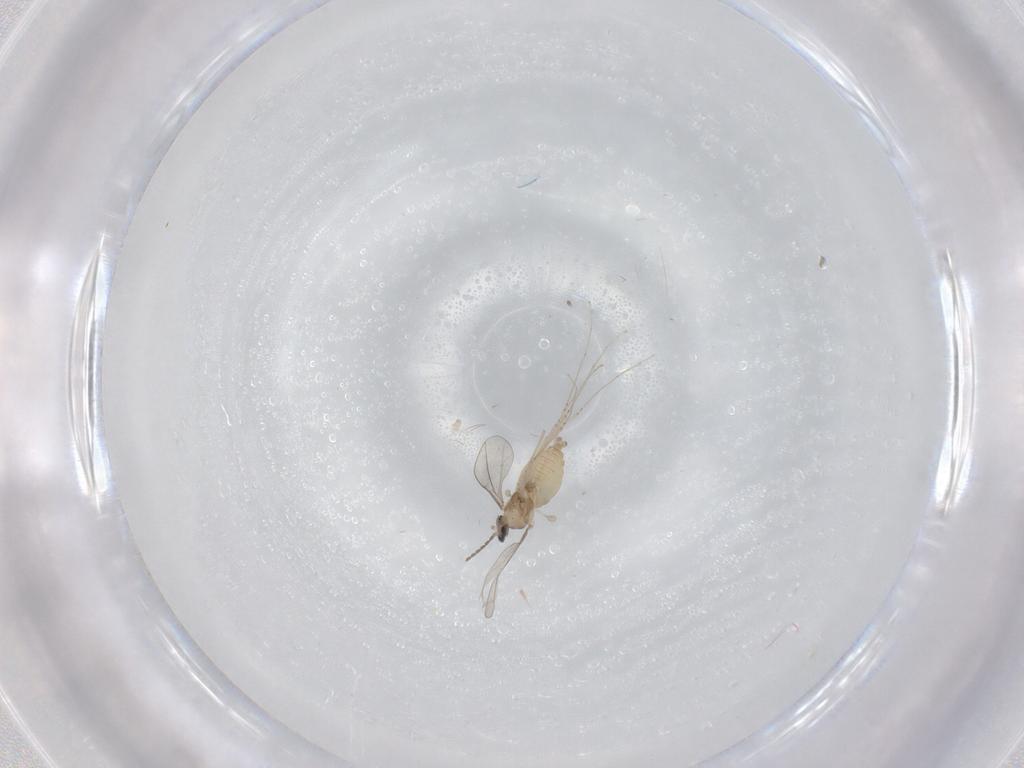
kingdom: Animalia
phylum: Arthropoda
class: Insecta
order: Diptera
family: Cecidomyiidae
